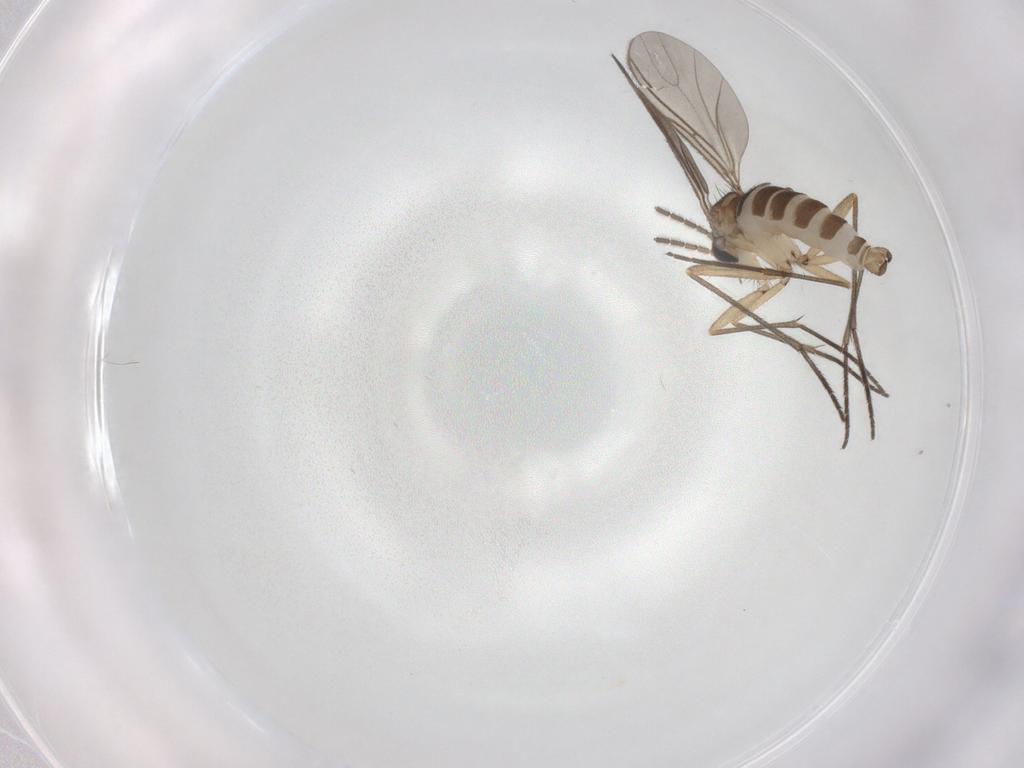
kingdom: Animalia
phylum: Arthropoda
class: Insecta
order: Diptera
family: Sciaridae
